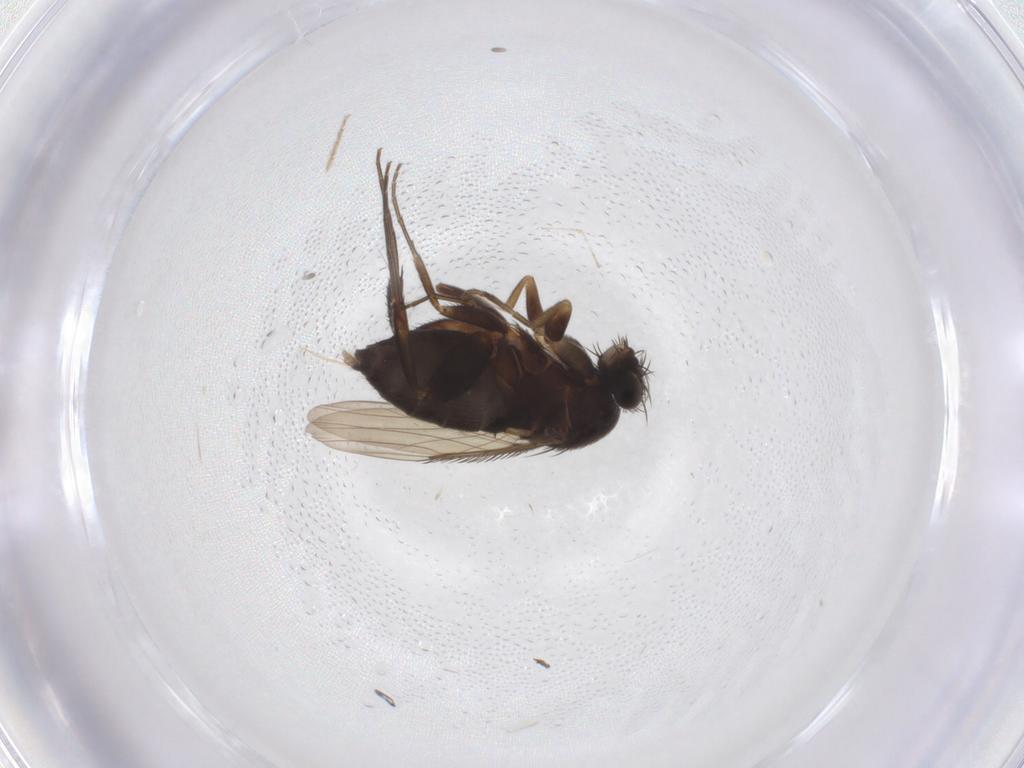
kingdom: Animalia
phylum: Arthropoda
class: Insecta
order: Diptera
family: Phoridae
